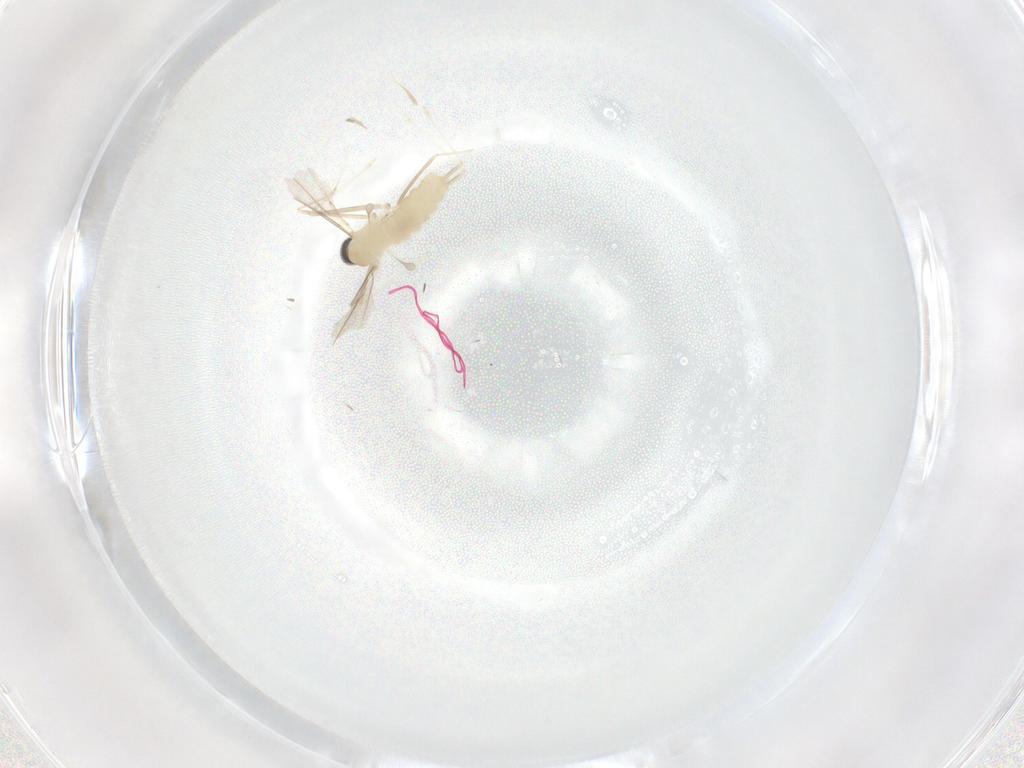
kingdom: Animalia
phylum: Arthropoda
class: Insecta
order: Diptera
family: Cecidomyiidae
